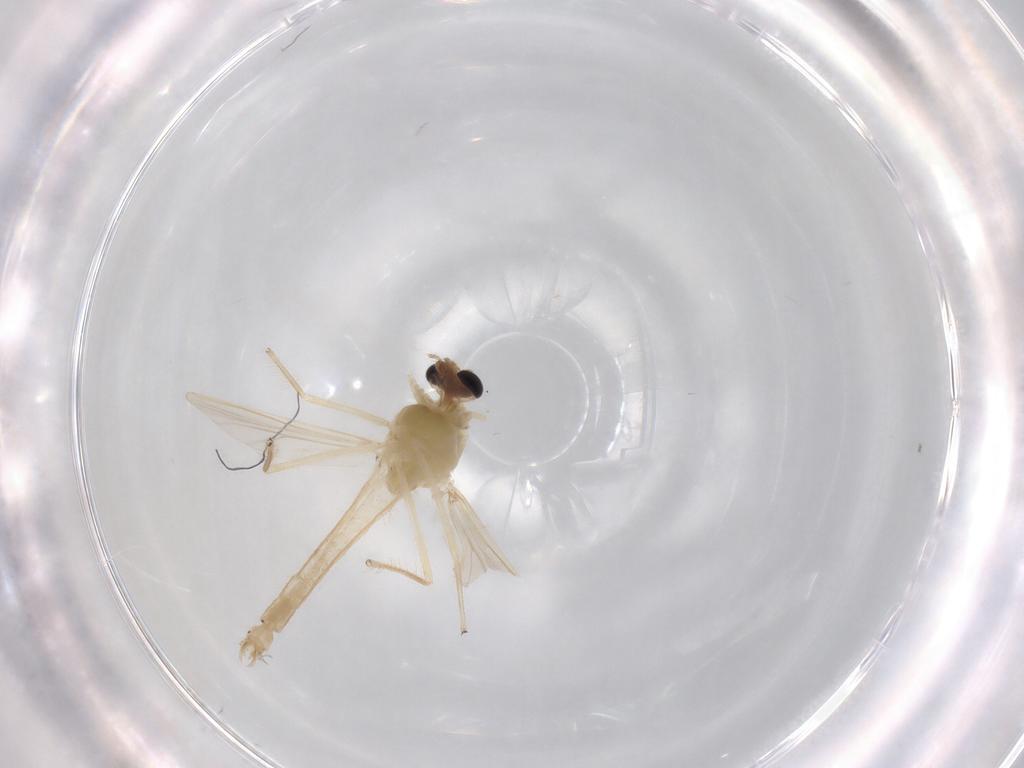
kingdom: Animalia
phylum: Arthropoda
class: Insecta
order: Diptera
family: Chironomidae
